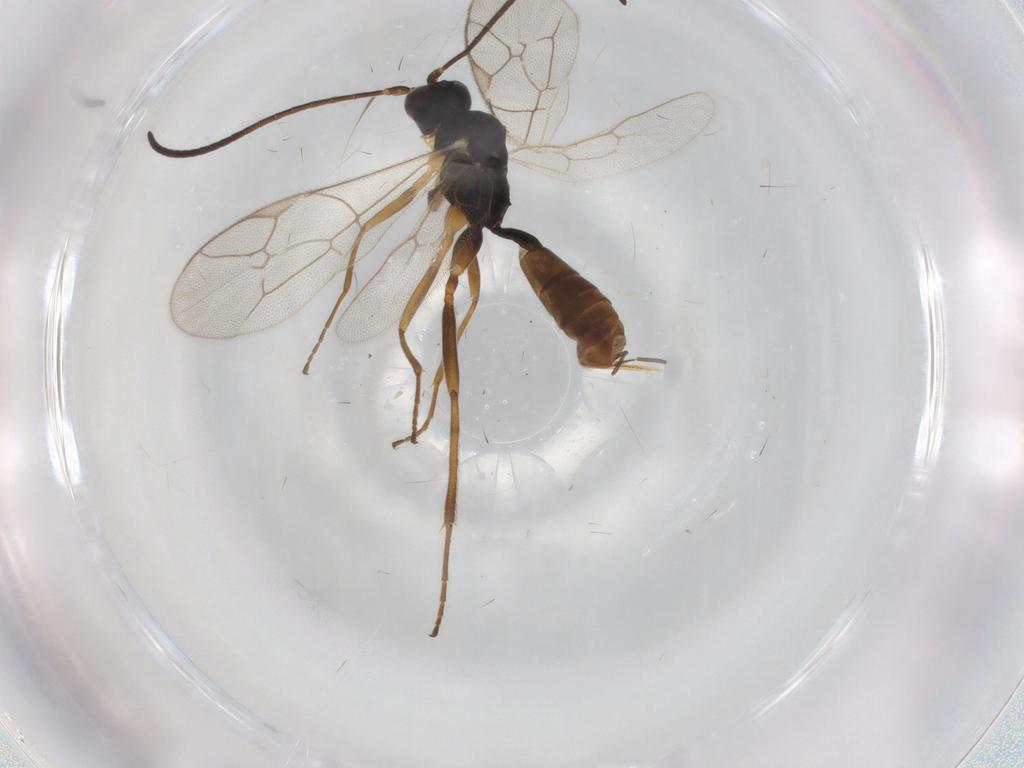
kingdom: Animalia
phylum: Arthropoda
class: Insecta
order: Hymenoptera
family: Ichneumonidae
